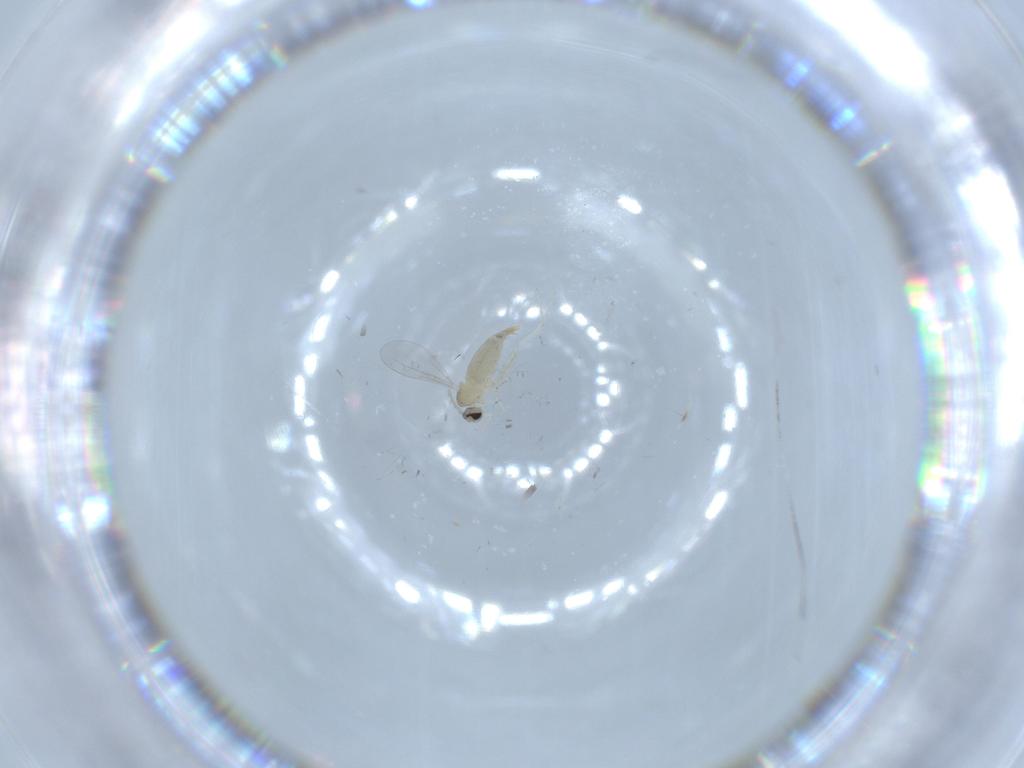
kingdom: Animalia
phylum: Arthropoda
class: Insecta
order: Diptera
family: Cecidomyiidae
